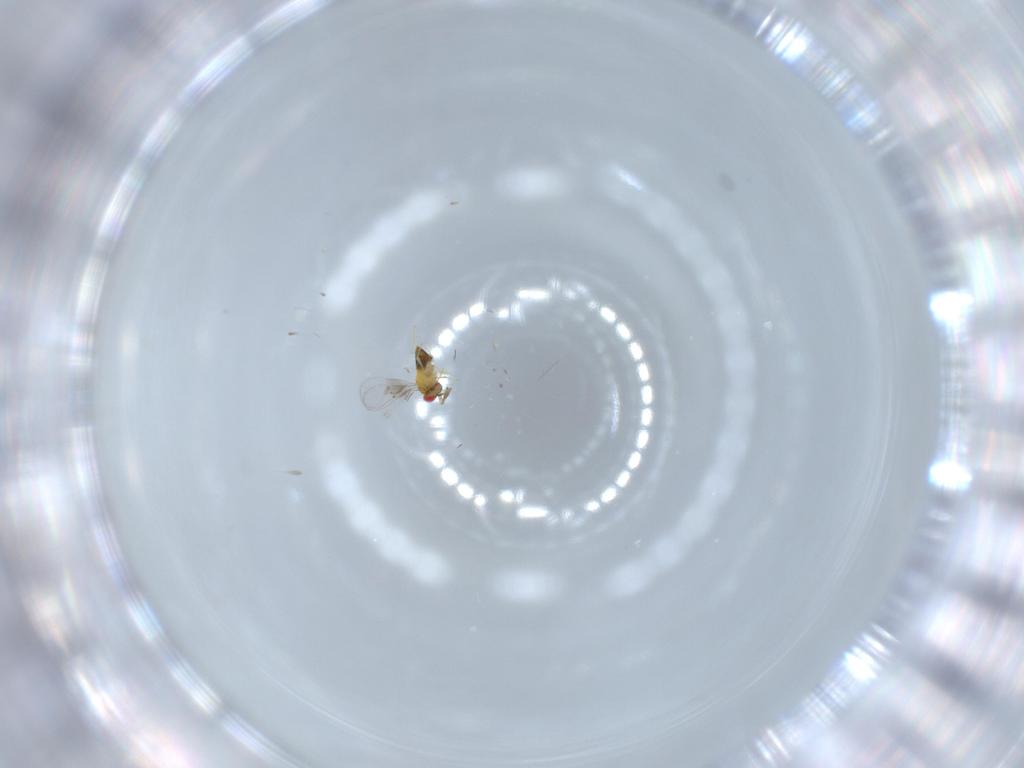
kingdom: Animalia
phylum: Arthropoda
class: Insecta
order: Hymenoptera
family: Trichogrammatidae
